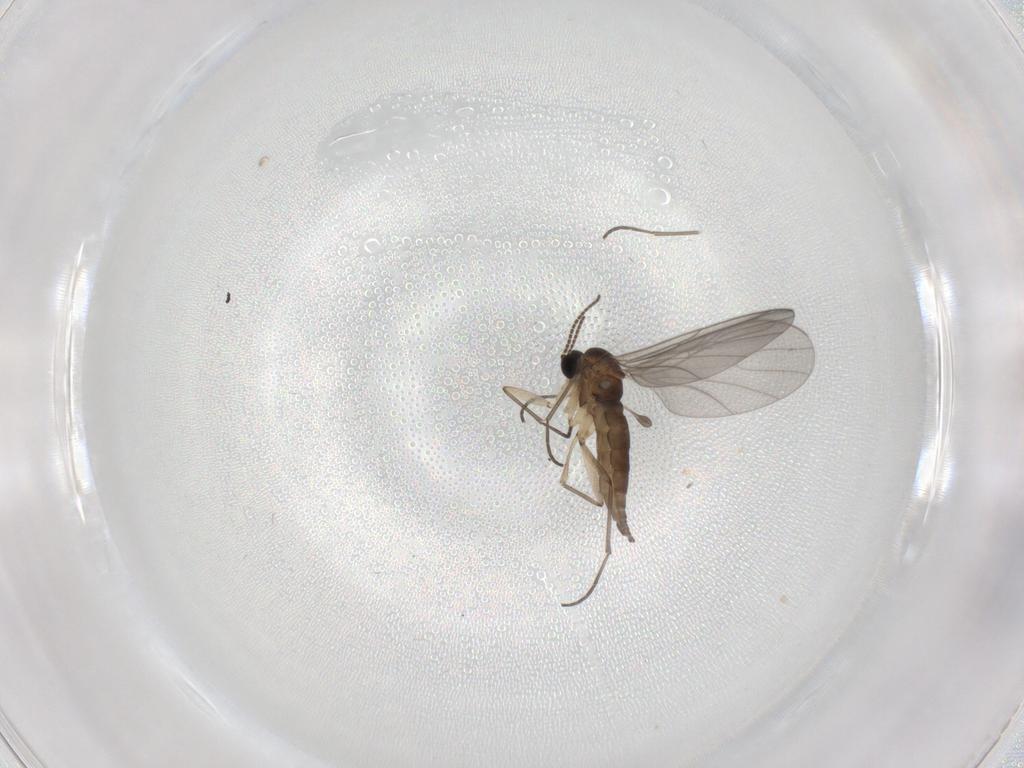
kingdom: Animalia
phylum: Arthropoda
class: Insecta
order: Diptera
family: Sciaridae
